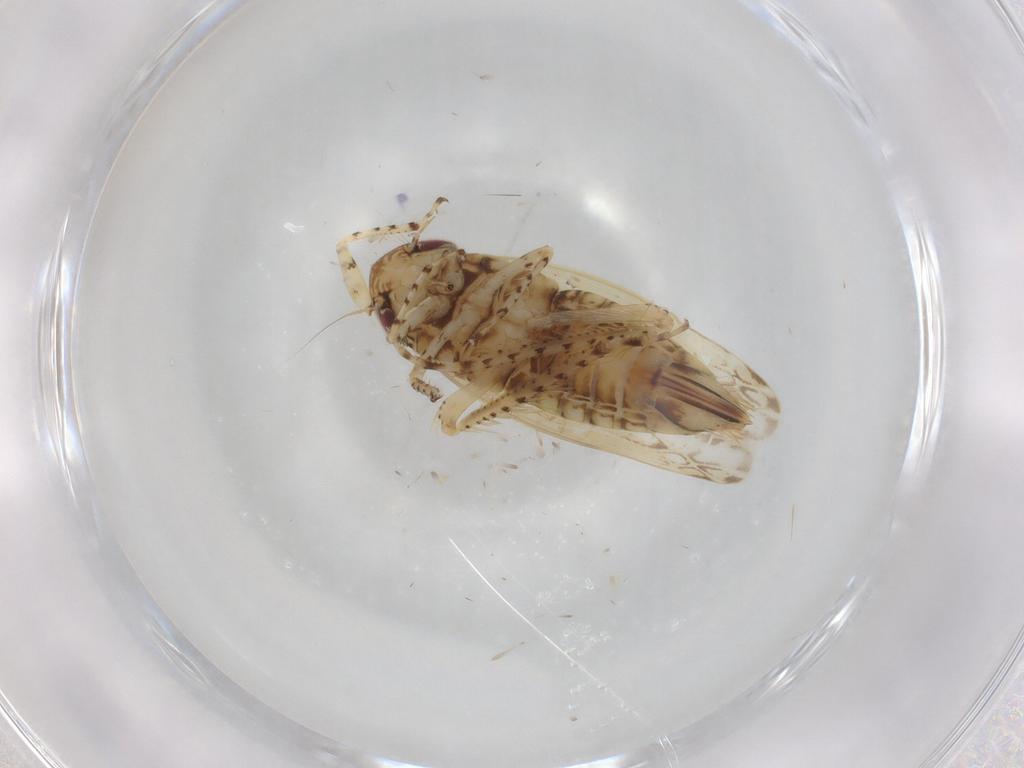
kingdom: Animalia
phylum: Arthropoda
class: Insecta
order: Hemiptera
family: Cicadellidae
